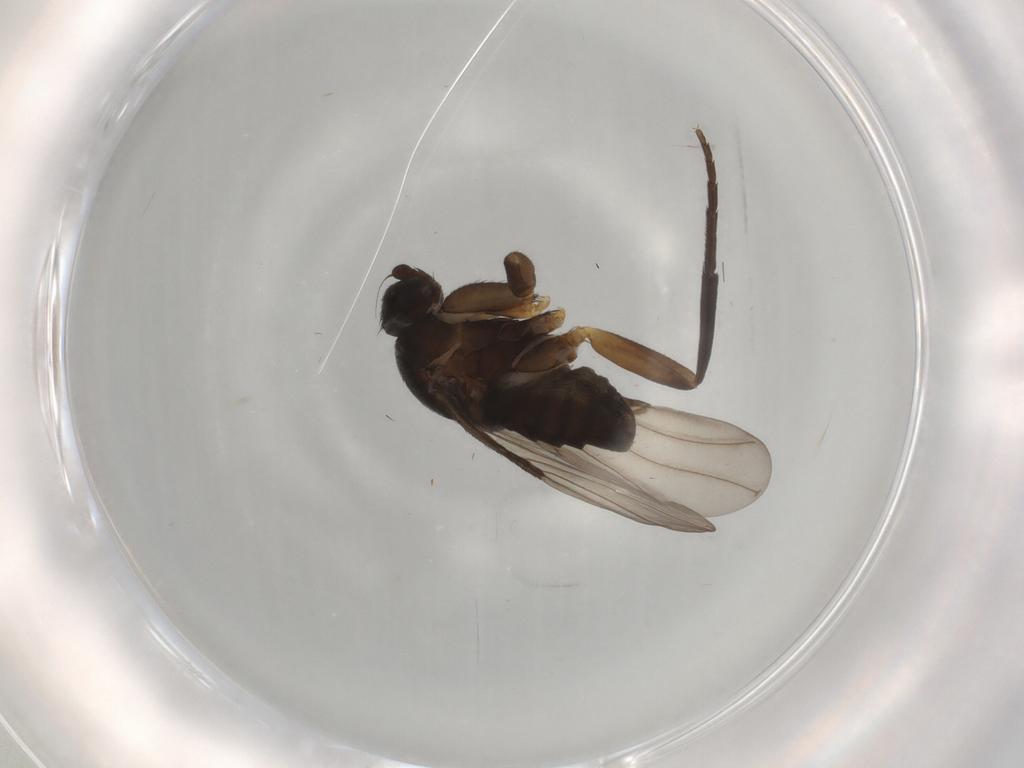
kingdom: Animalia
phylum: Arthropoda
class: Insecta
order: Diptera
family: Phoridae
